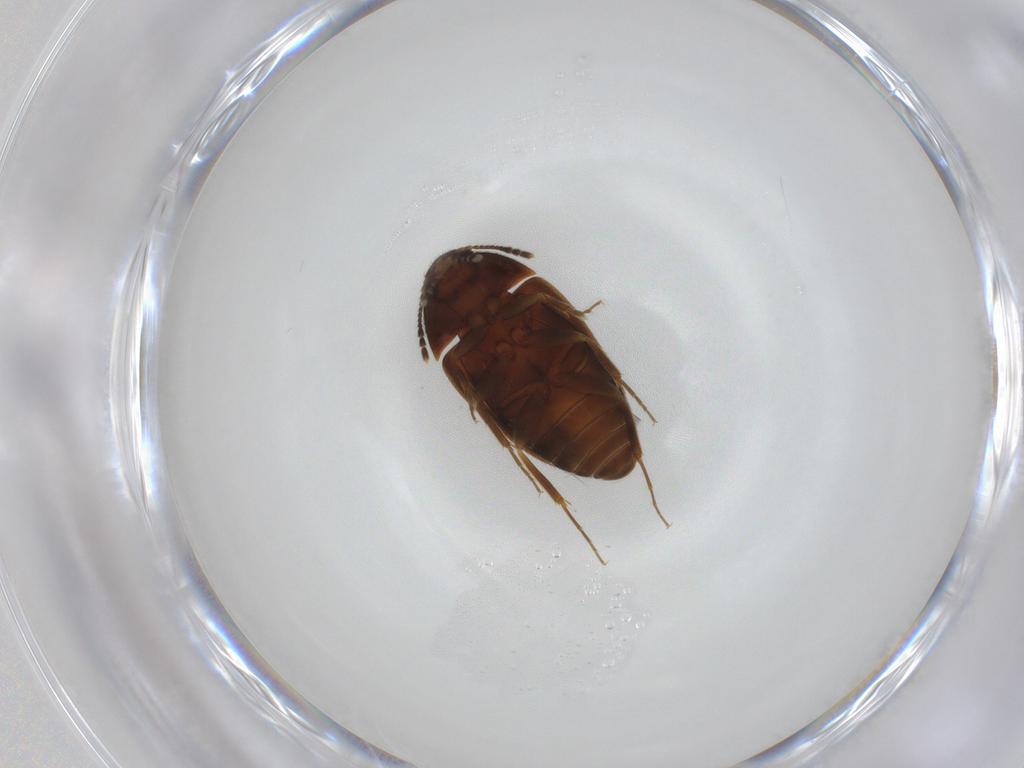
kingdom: Animalia
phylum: Arthropoda
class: Insecta
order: Coleoptera
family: Mycetophagidae
